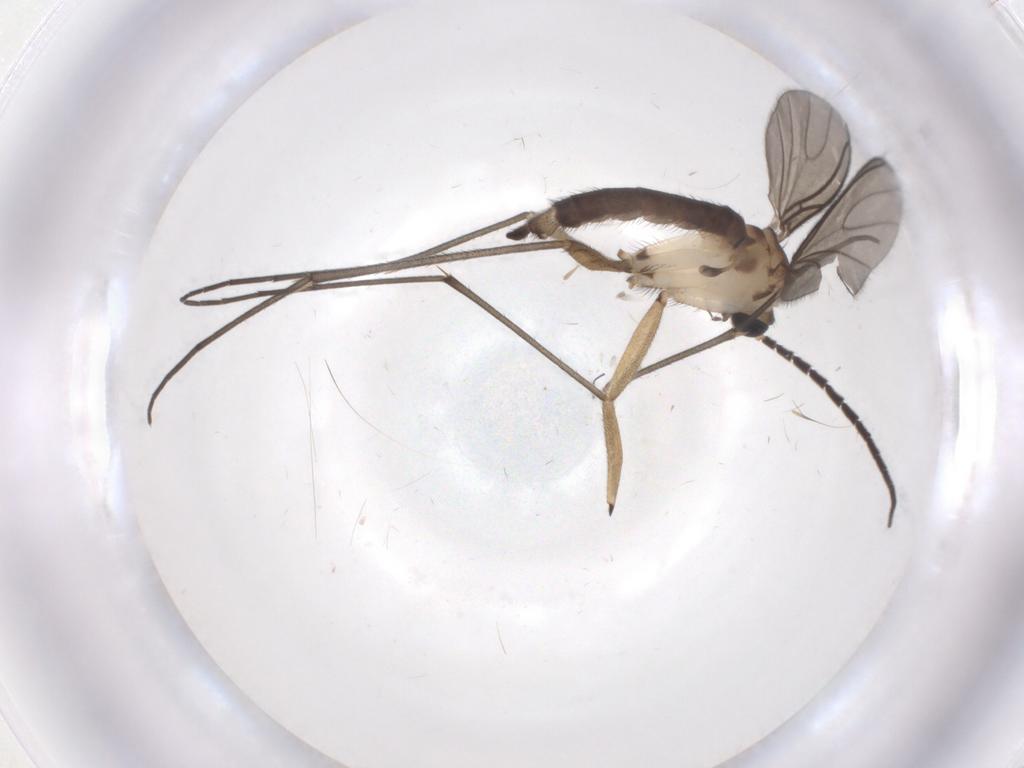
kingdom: Animalia
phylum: Arthropoda
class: Insecta
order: Diptera
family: Sciaridae
